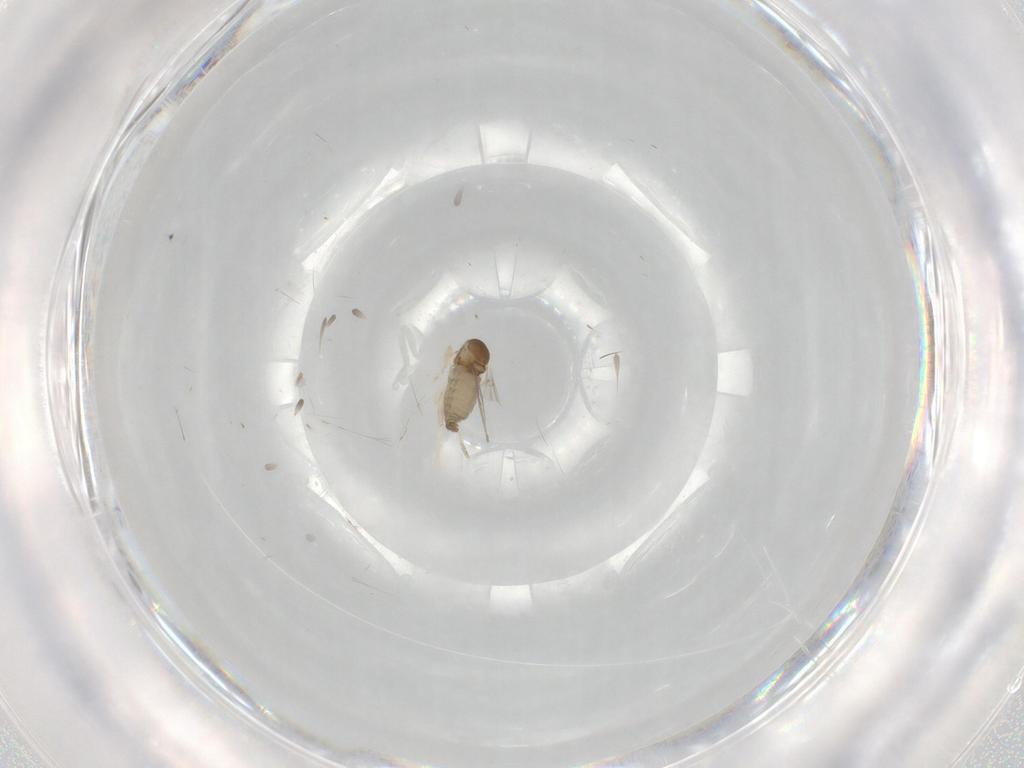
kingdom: Animalia
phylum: Arthropoda
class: Insecta
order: Diptera
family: Cecidomyiidae
